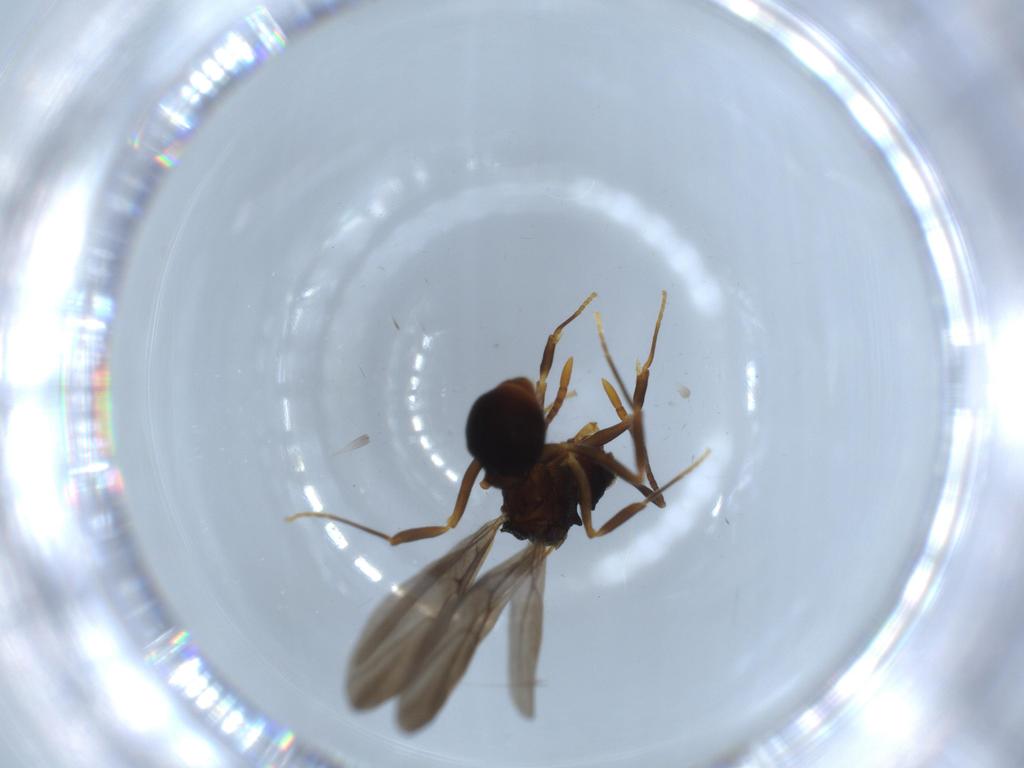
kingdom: Animalia
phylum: Arthropoda
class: Insecta
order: Hymenoptera
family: Formicidae
